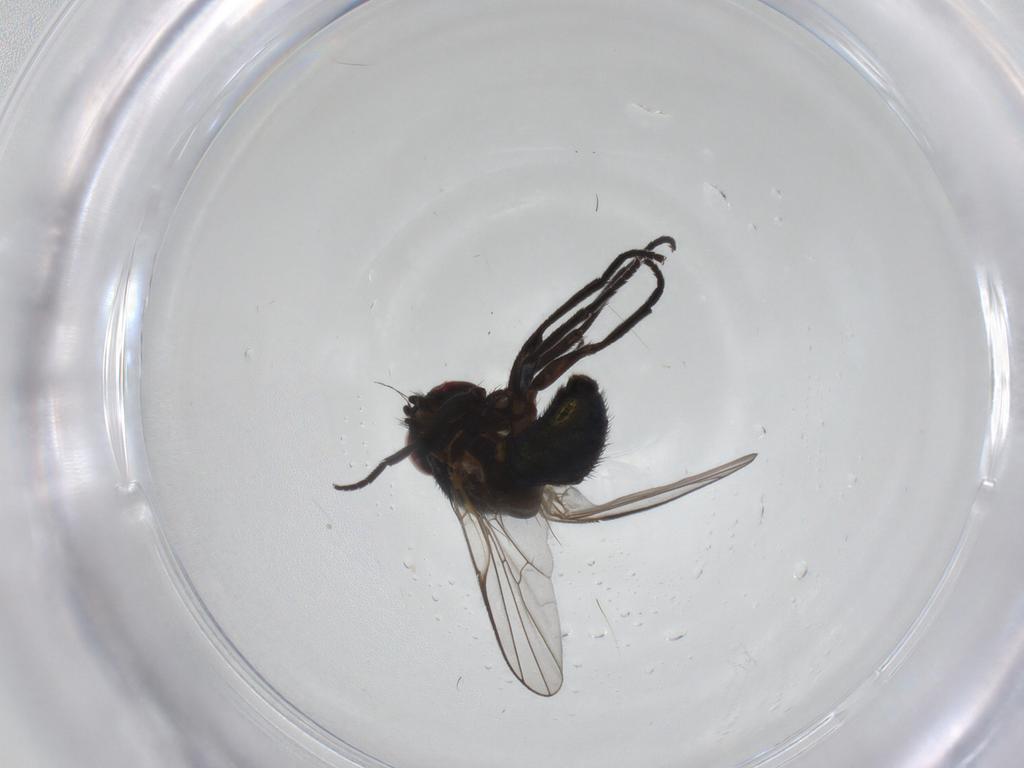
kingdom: Animalia
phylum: Arthropoda
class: Insecta
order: Diptera
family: Agromyzidae
